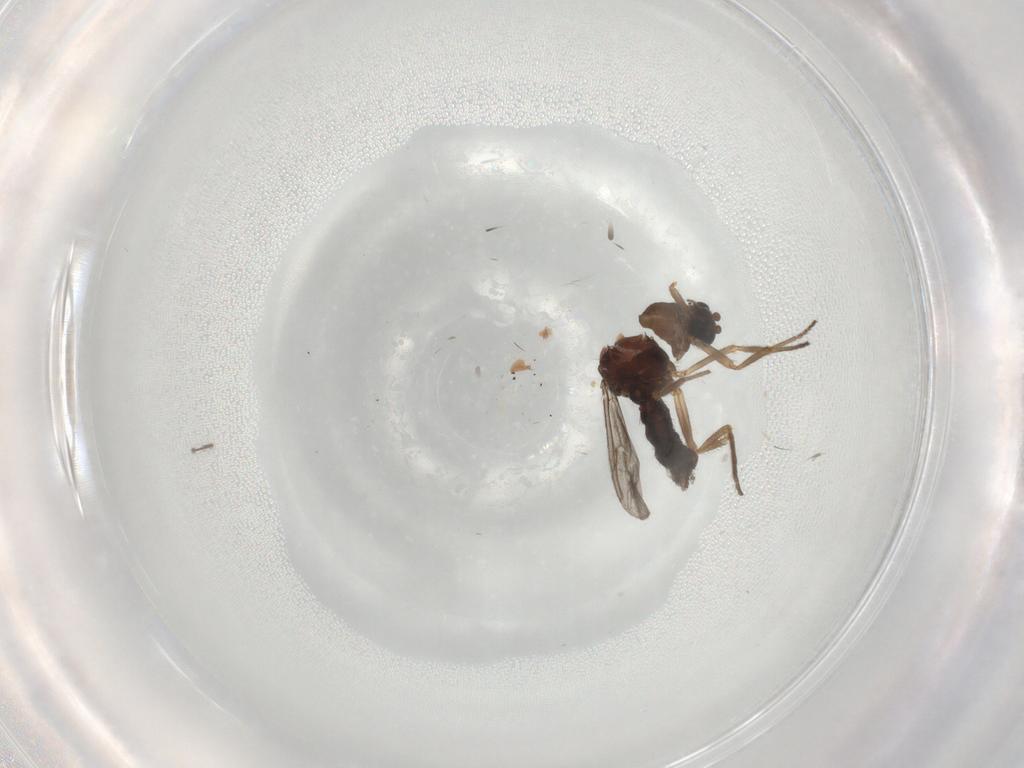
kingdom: Animalia
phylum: Arthropoda
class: Insecta
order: Diptera
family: Ceratopogonidae
